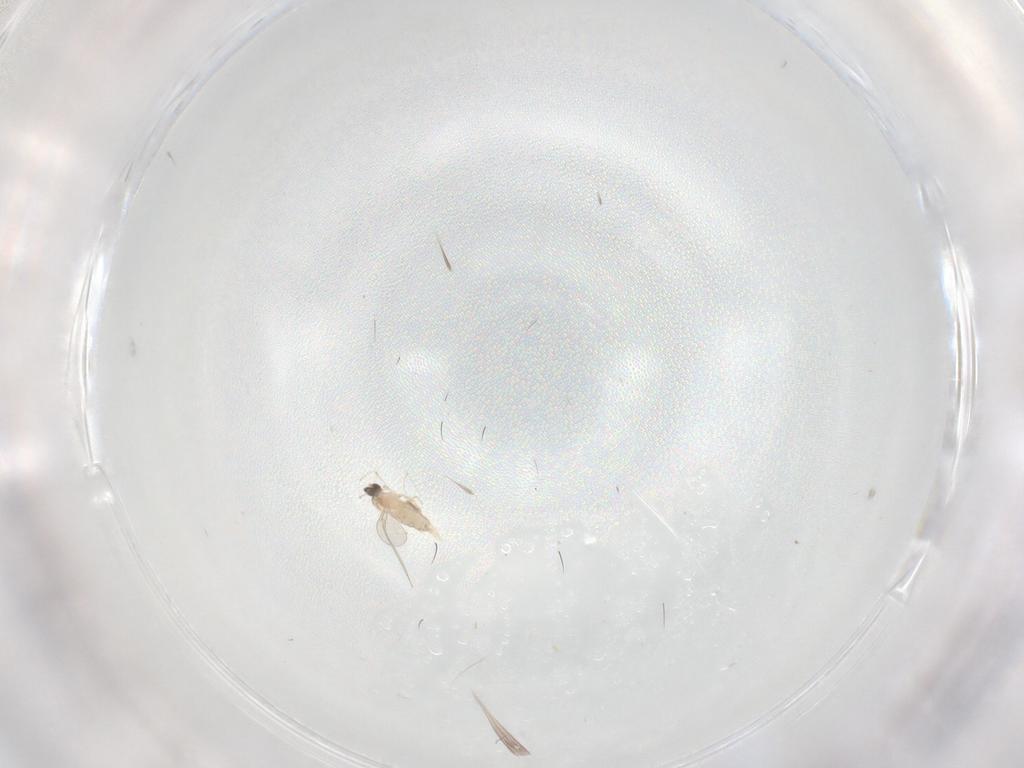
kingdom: Animalia
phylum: Arthropoda
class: Insecta
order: Diptera
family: Cecidomyiidae
